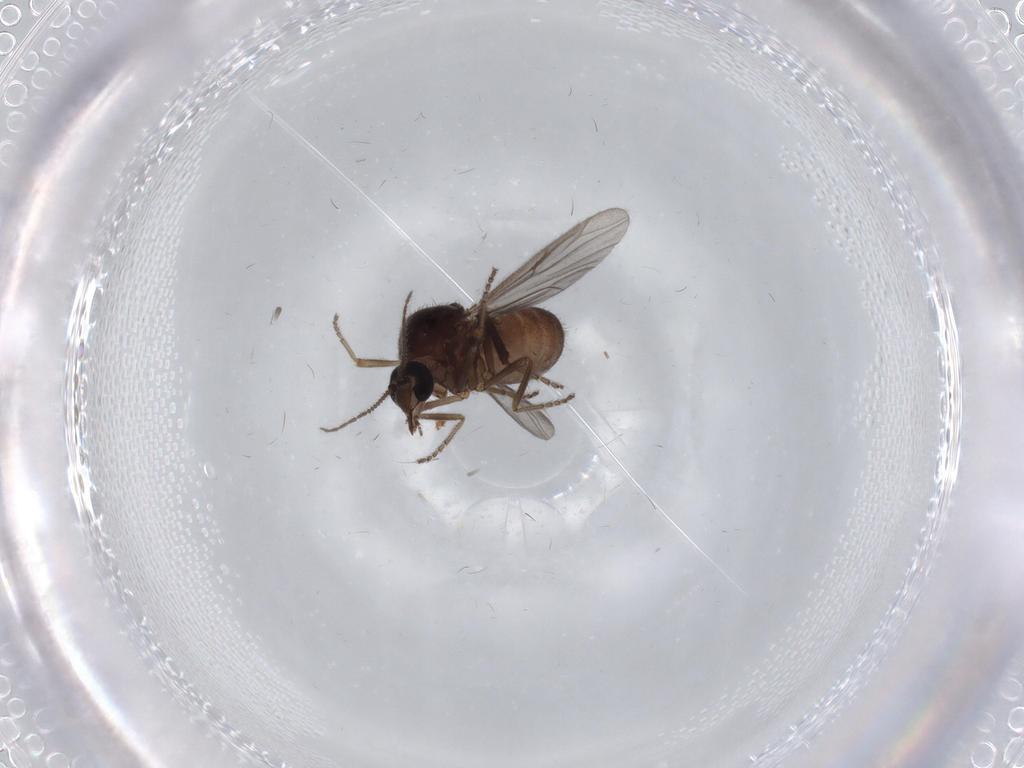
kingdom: Animalia
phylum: Arthropoda
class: Insecta
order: Diptera
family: Ceratopogonidae
